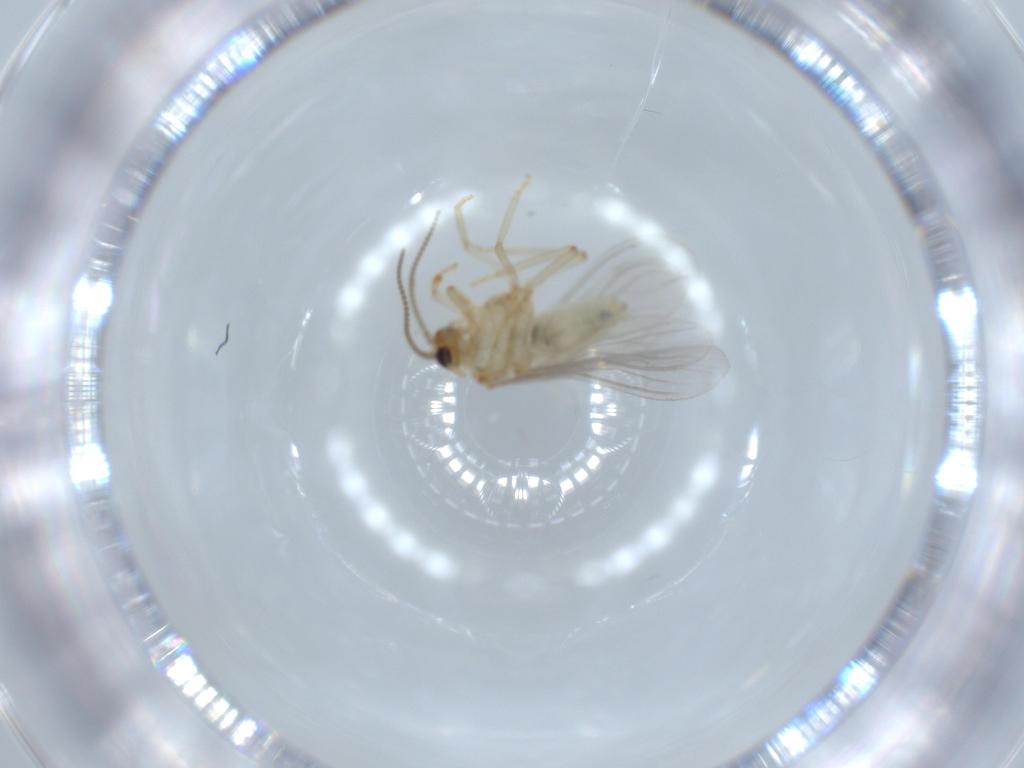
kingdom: Animalia
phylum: Arthropoda
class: Insecta
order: Neuroptera
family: Coniopterygidae
